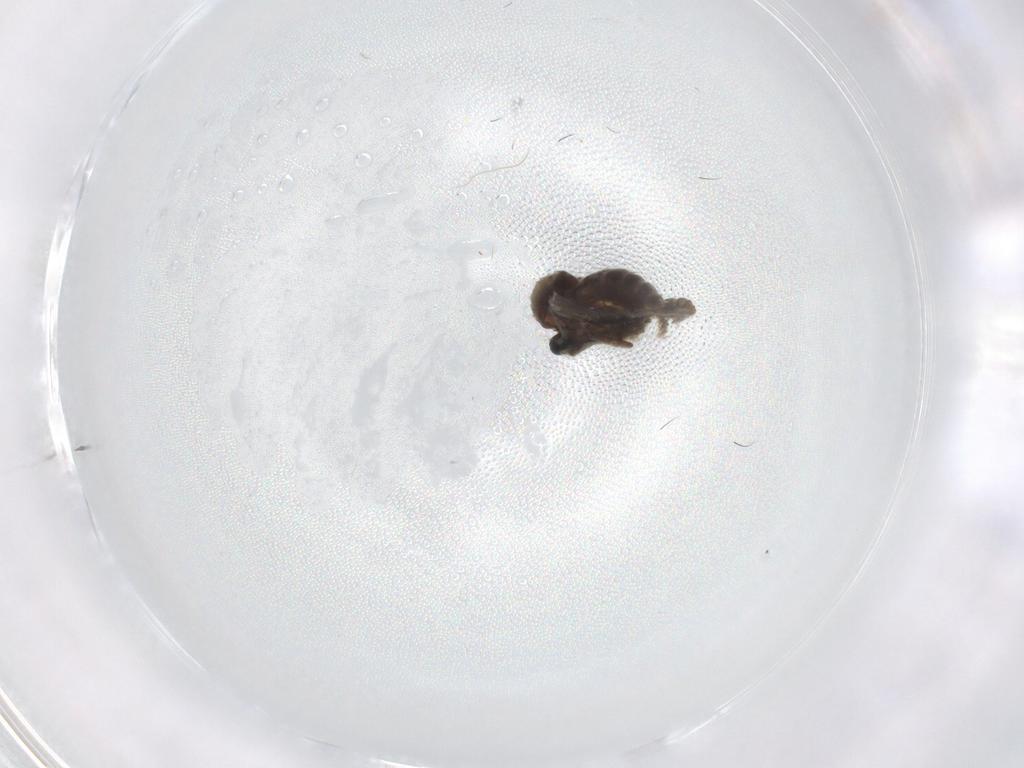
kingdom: Animalia
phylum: Arthropoda
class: Insecta
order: Diptera
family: Cecidomyiidae
